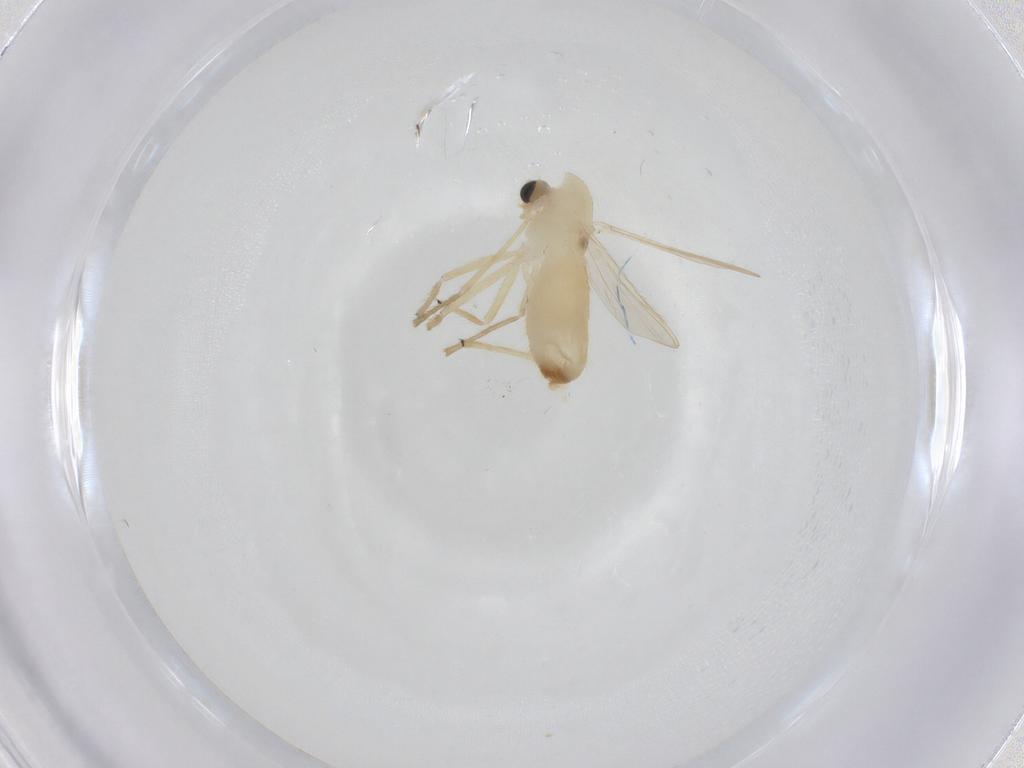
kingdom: Animalia
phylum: Arthropoda
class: Insecta
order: Diptera
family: Chironomidae
